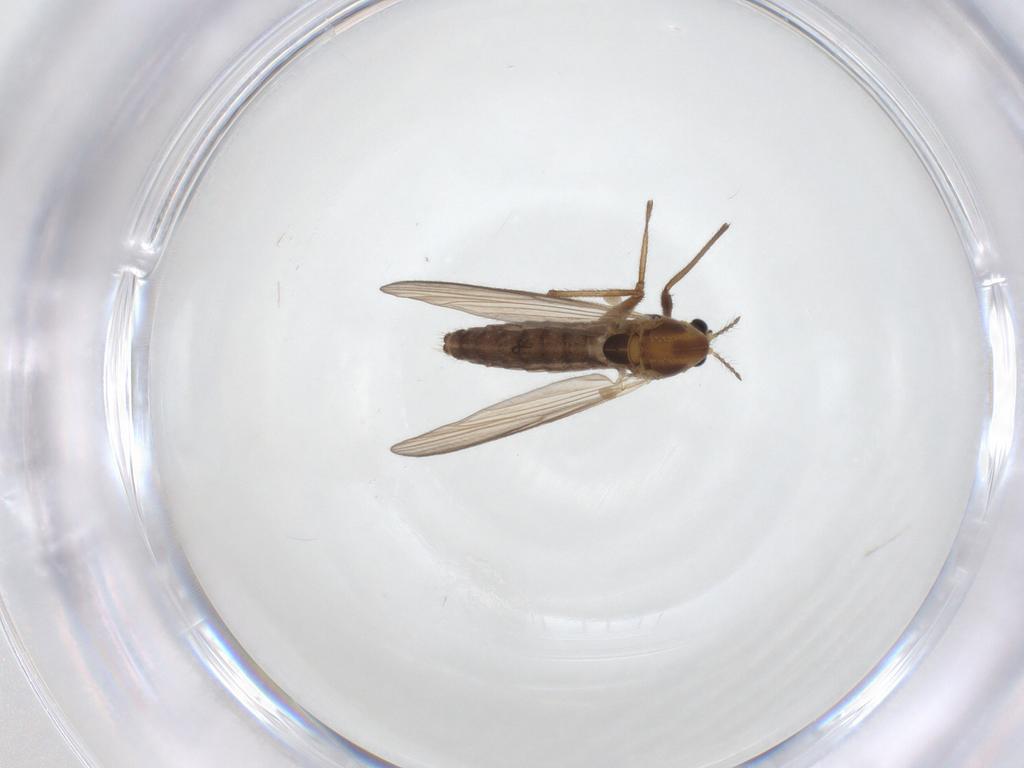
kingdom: Animalia
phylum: Arthropoda
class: Insecta
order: Diptera
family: Chironomidae
